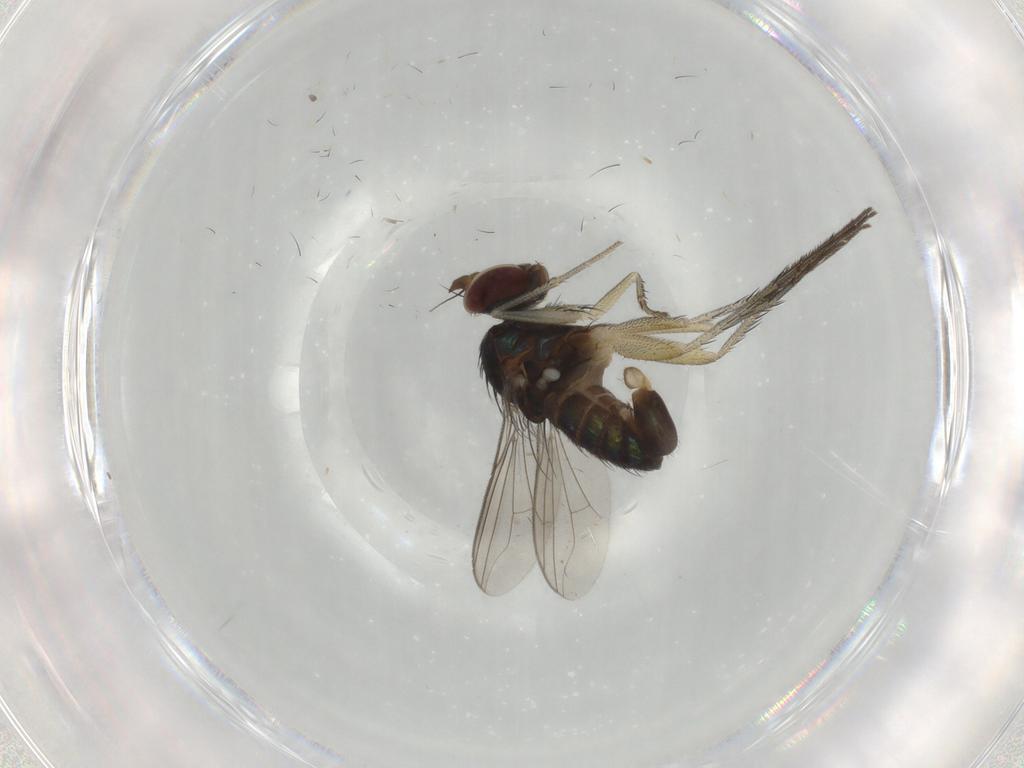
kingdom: Animalia
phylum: Arthropoda
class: Insecta
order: Diptera
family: Dolichopodidae
